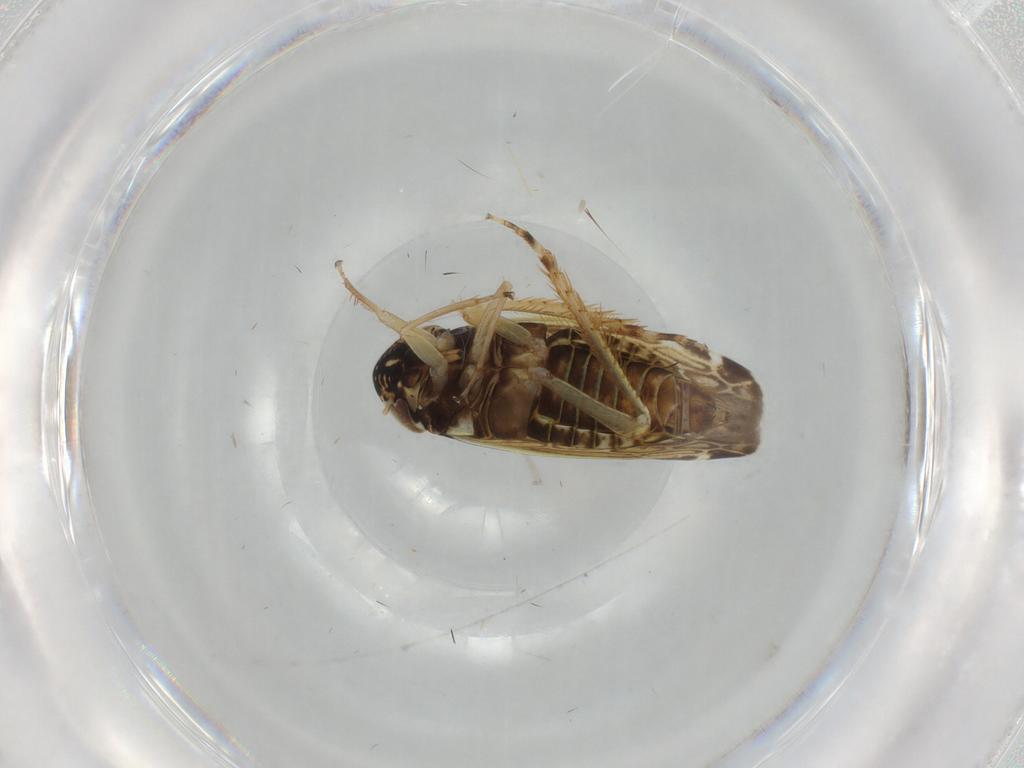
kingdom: Animalia
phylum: Arthropoda
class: Insecta
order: Hemiptera
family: Cicadellidae
